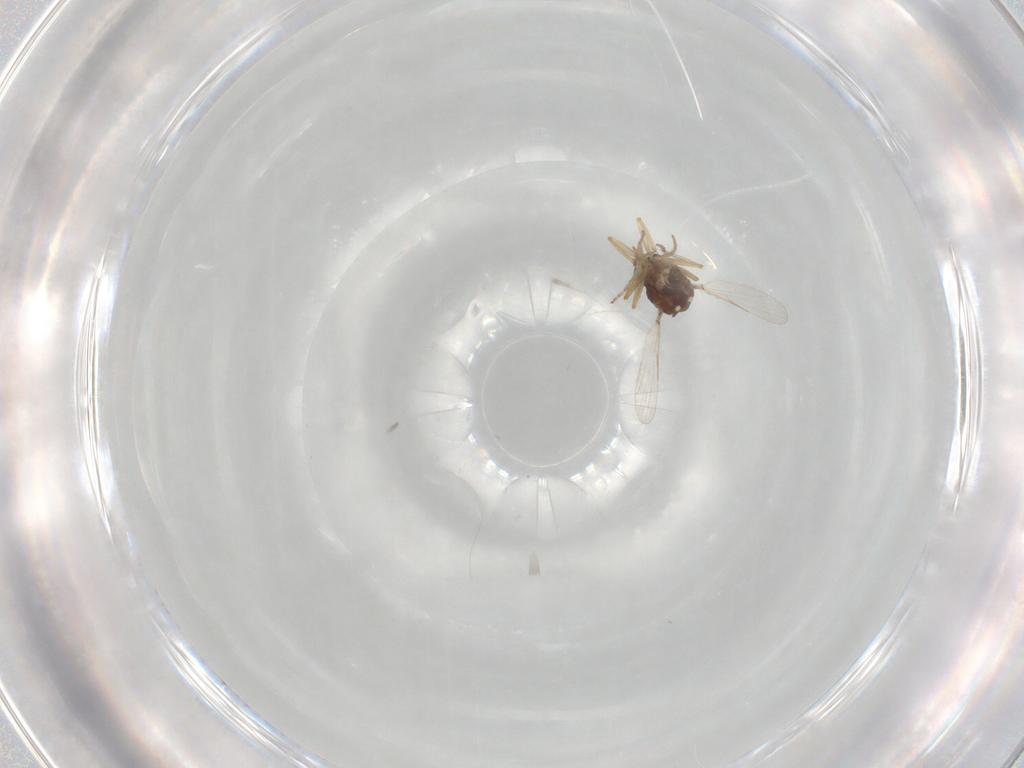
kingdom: Animalia
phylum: Arthropoda
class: Insecta
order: Diptera
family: Ceratopogonidae
